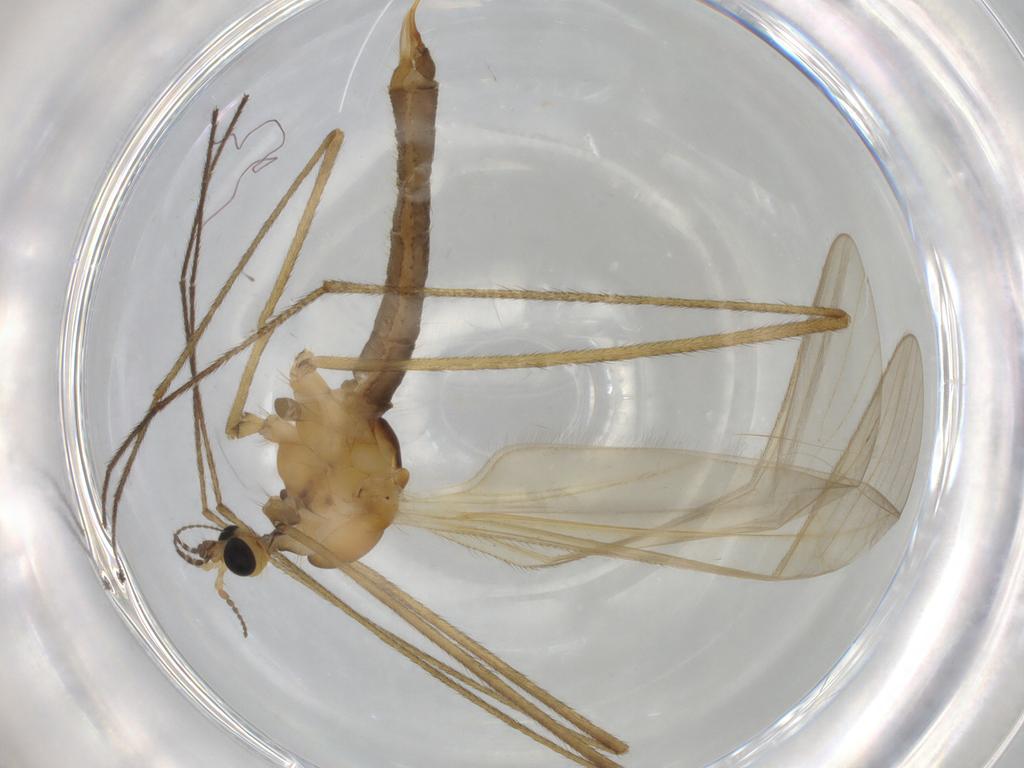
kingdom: Animalia
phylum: Arthropoda
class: Insecta
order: Diptera
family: Limoniidae
